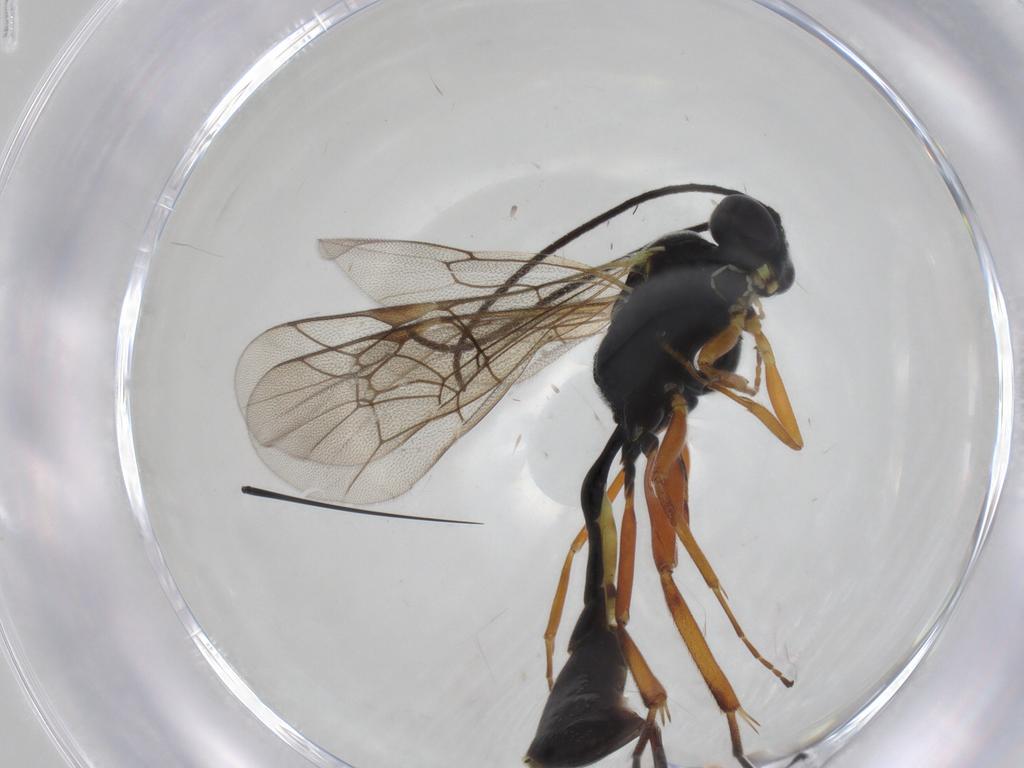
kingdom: Animalia
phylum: Arthropoda
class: Insecta
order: Hymenoptera
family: Ichneumonidae
